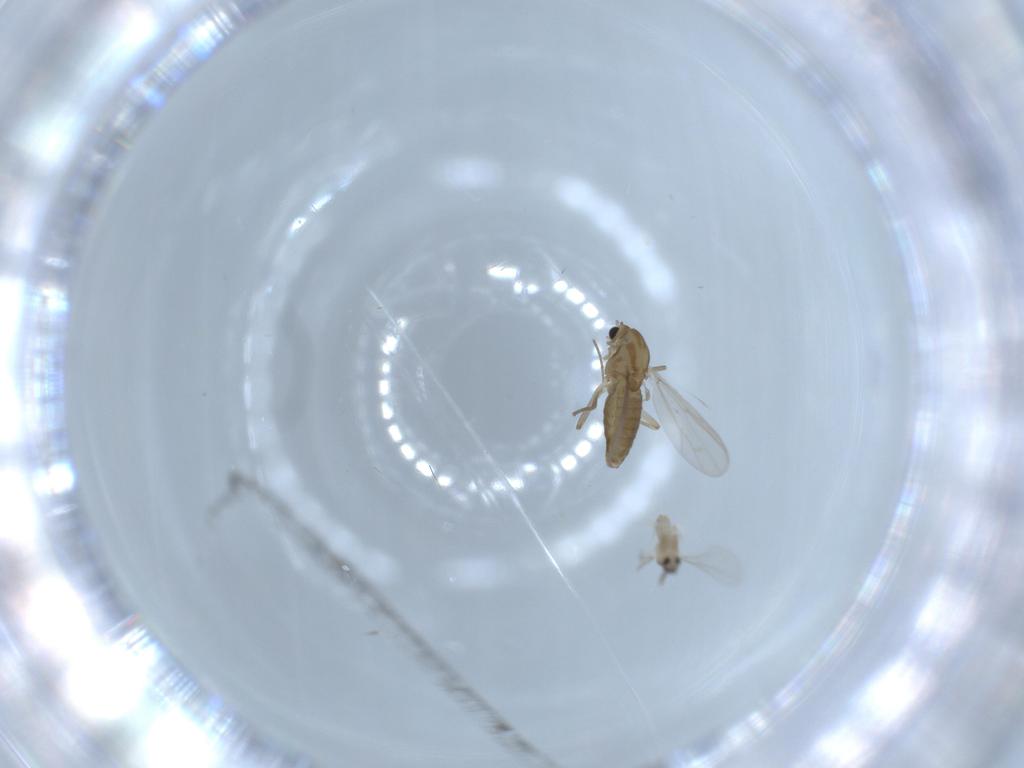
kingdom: Animalia
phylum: Arthropoda
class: Insecta
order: Diptera
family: Chironomidae
